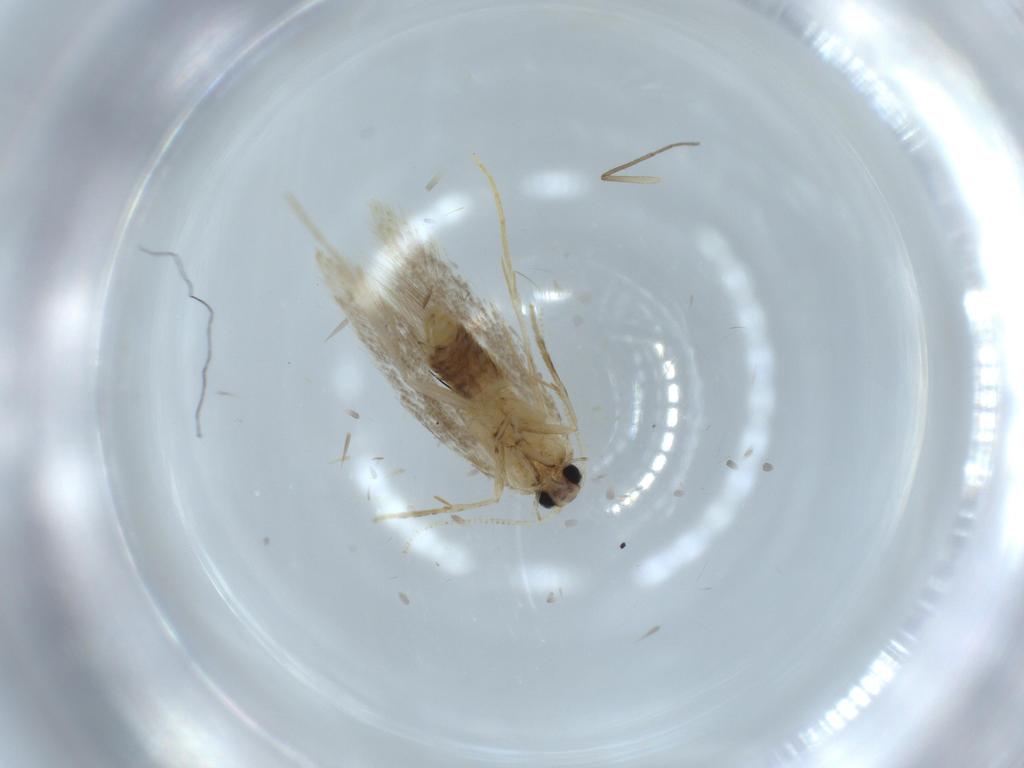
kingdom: Animalia
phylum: Arthropoda
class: Insecta
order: Lepidoptera
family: Tineidae
